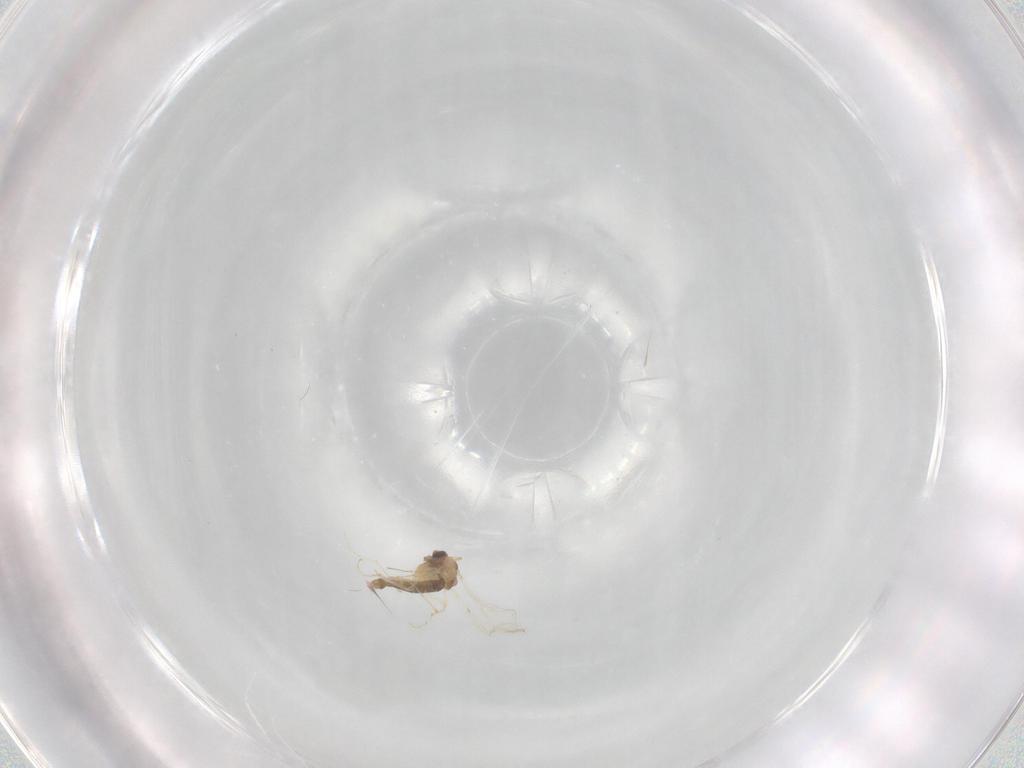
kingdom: Animalia
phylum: Arthropoda
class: Insecta
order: Diptera
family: Chironomidae
